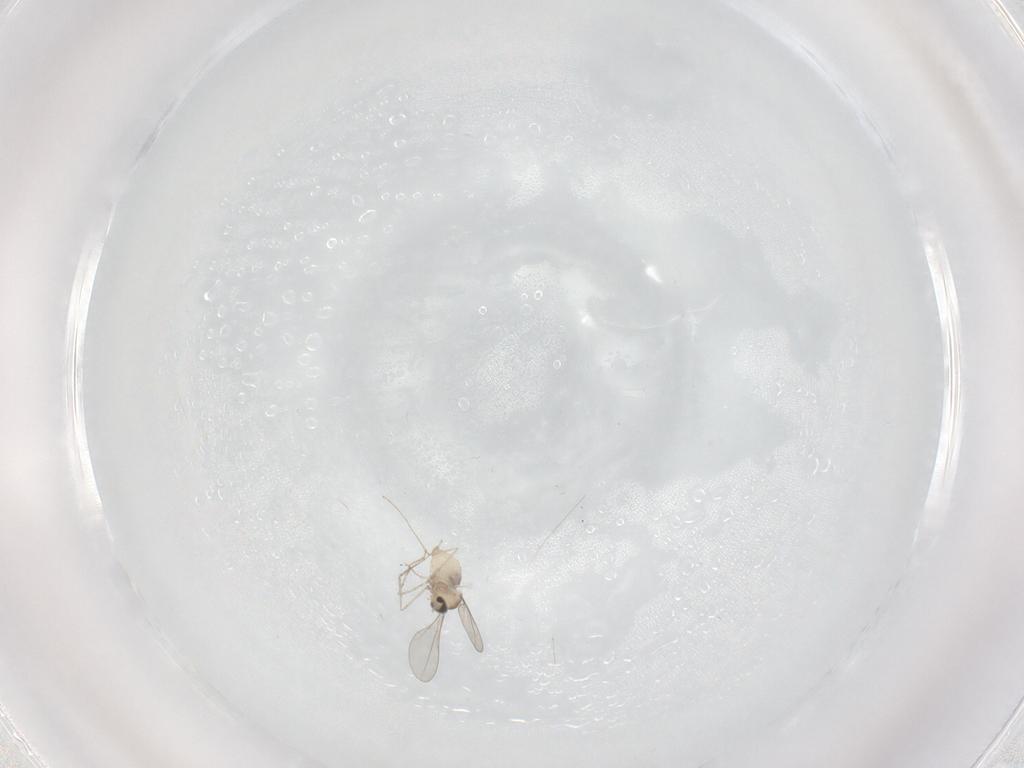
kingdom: Animalia
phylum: Arthropoda
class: Insecta
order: Diptera
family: Cecidomyiidae
